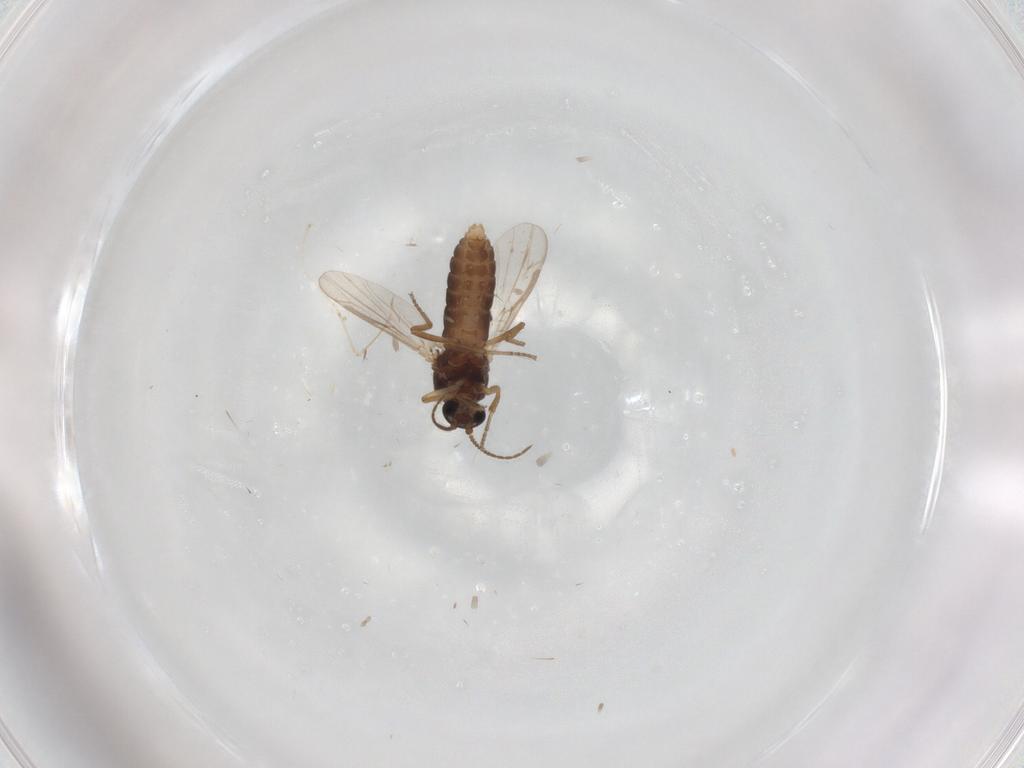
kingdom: Animalia
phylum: Arthropoda
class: Insecta
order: Diptera
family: Ceratopogonidae
